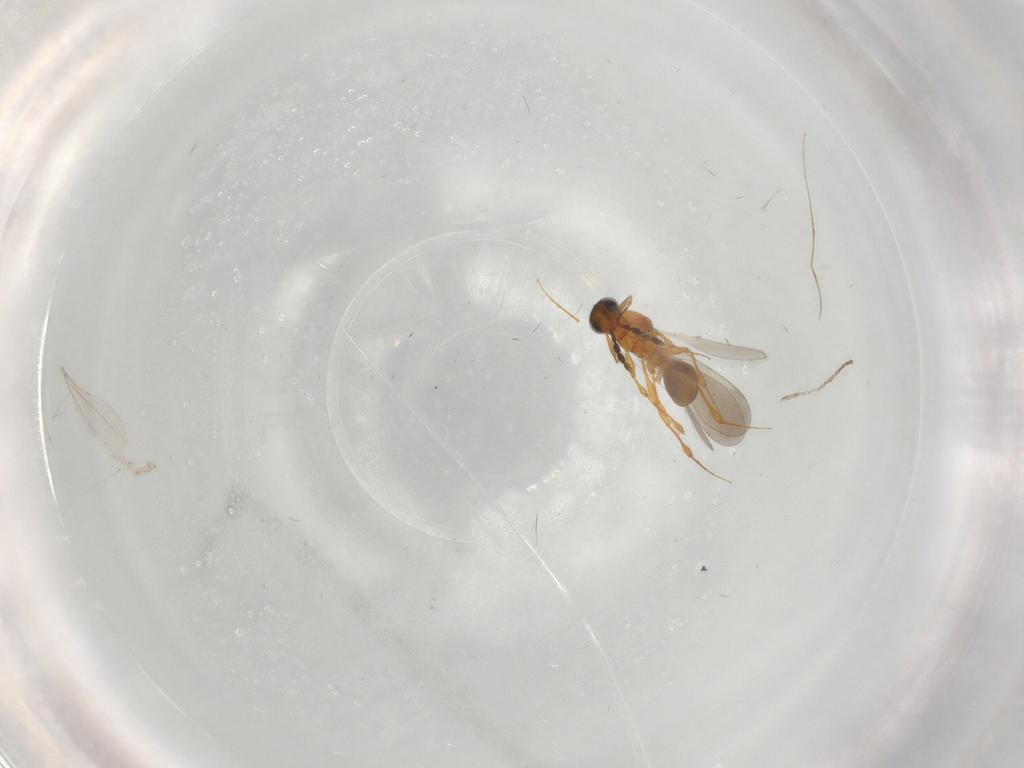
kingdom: Animalia
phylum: Arthropoda
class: Insecta
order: Hymenoptera
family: Platygastridae
